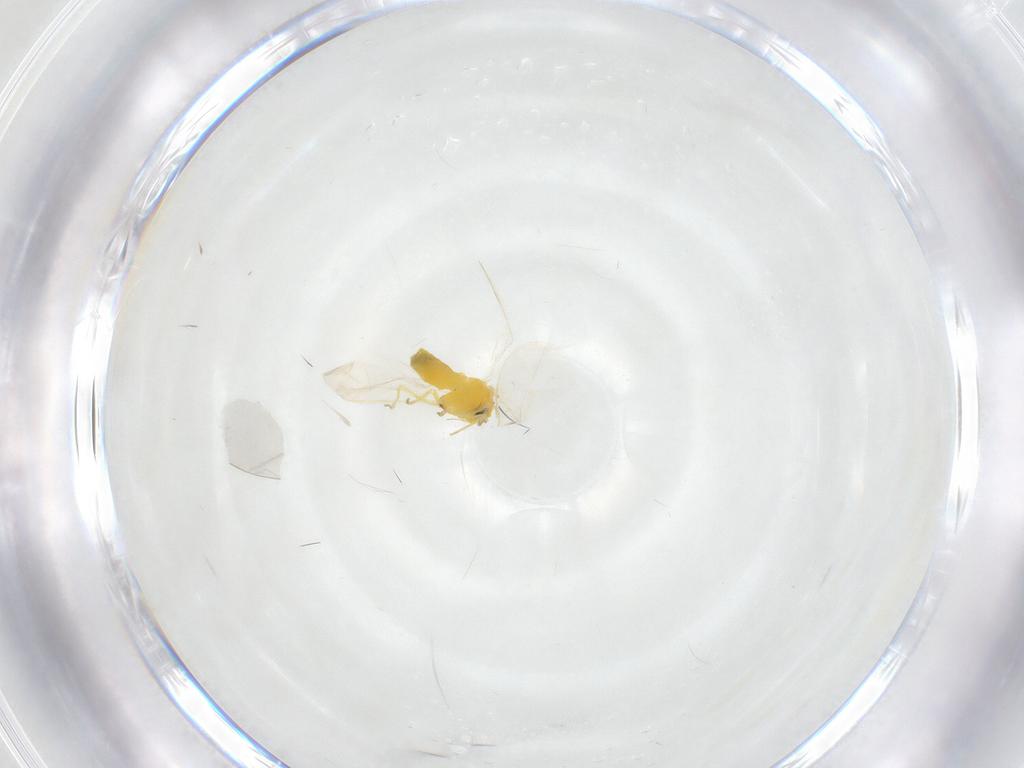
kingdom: Animalia
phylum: Arthropoda
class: Insecta
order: Hemiptera
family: Aleyrodidae
